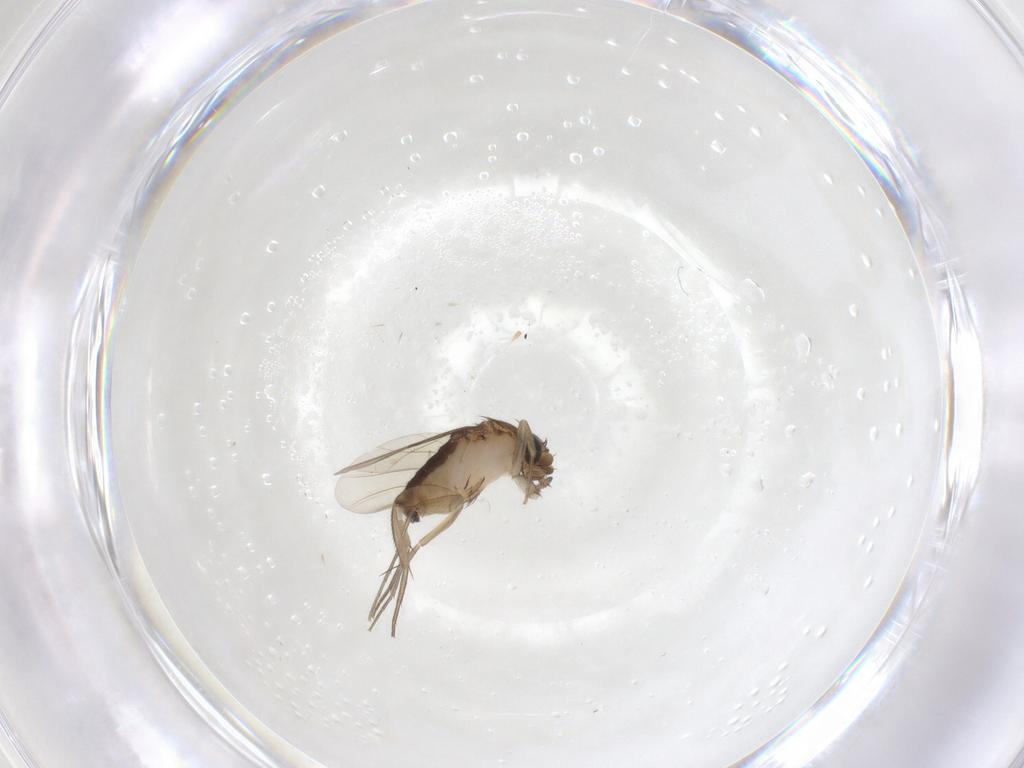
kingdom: Animalia
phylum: Arthropoda
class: Insecta
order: Diptera
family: Phoridae
